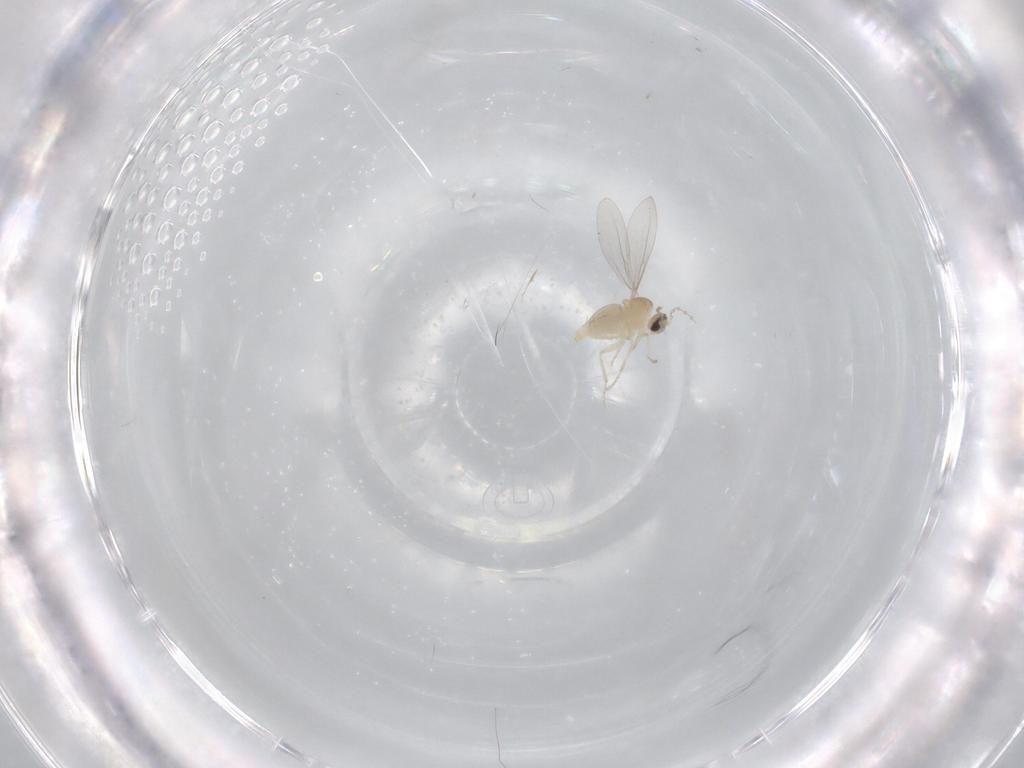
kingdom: Animalia
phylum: Arthropoda
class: Insecta
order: Diptera
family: Cecidomyiidae
